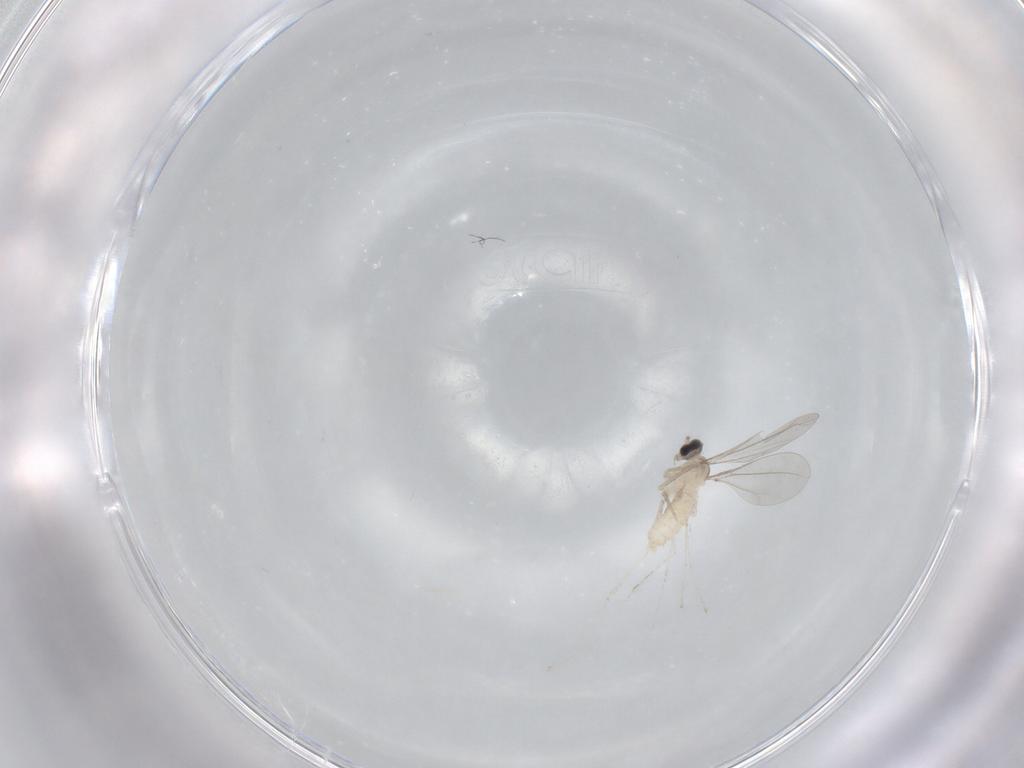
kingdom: Animalia
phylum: Arthropoda
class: Insecta
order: Diptera
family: Cecidomyiidae
